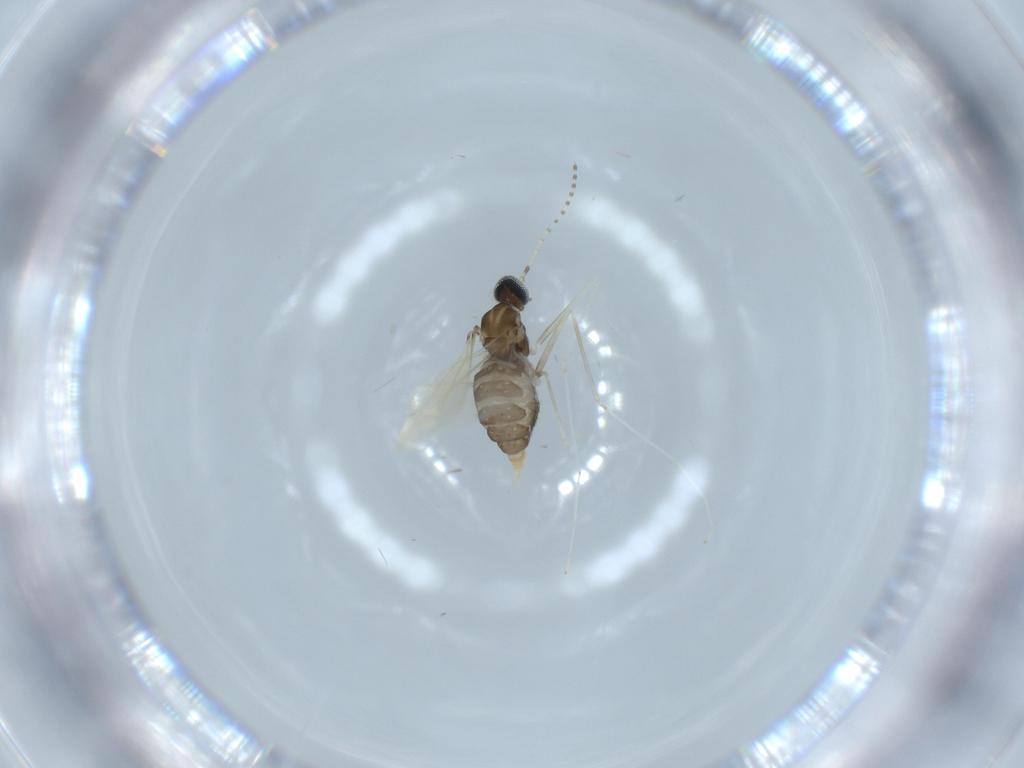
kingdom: Animalia
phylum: Arthropoda
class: Insecta
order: Diptera
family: Cecidomyiidae
